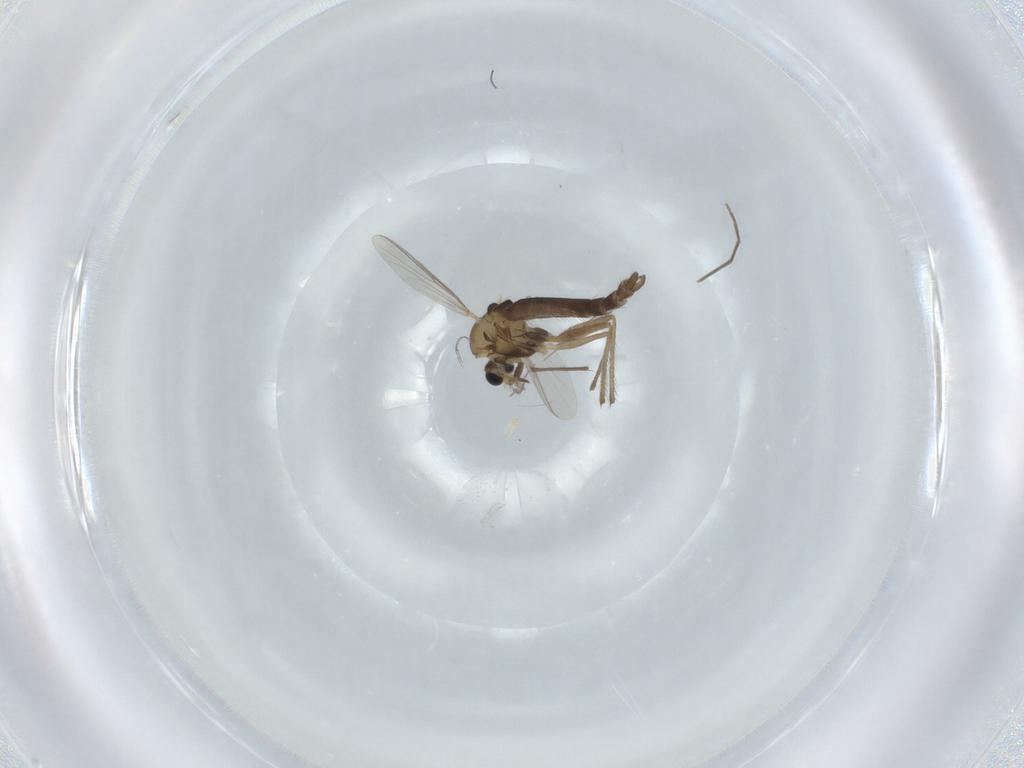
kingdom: Animalia
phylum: Arthropoda
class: Insecta
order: Diptera
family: Chironomidae
